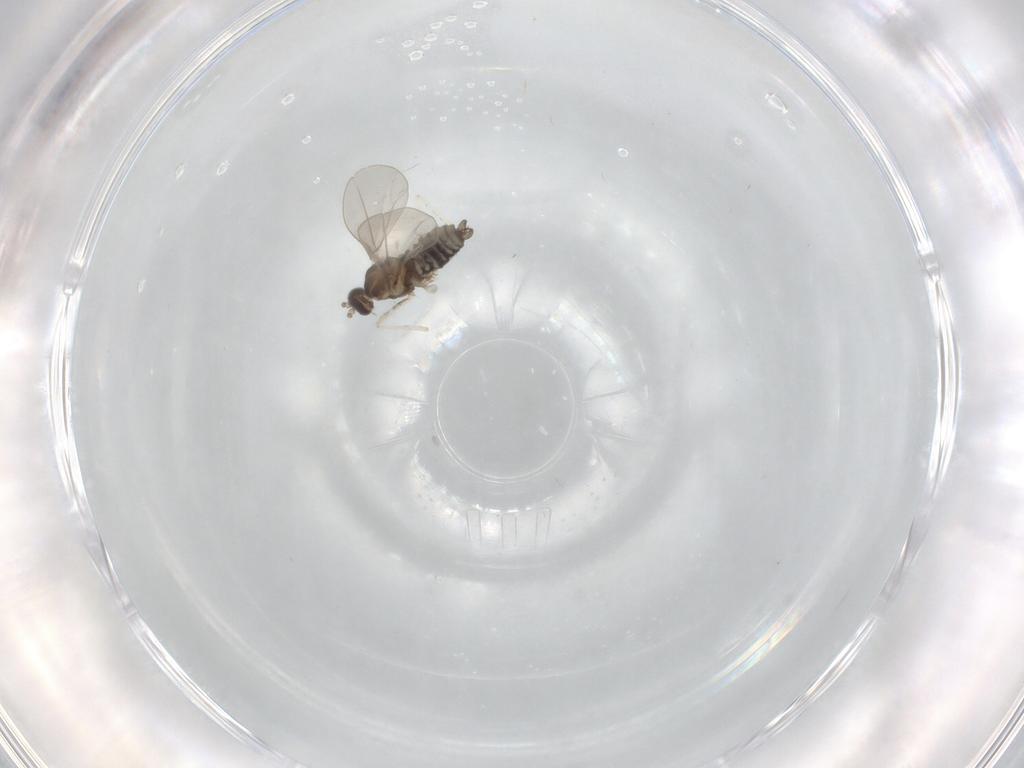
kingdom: Animalia
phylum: Arthropoda
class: Insecta
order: Diptera
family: Cecidomyiidae
